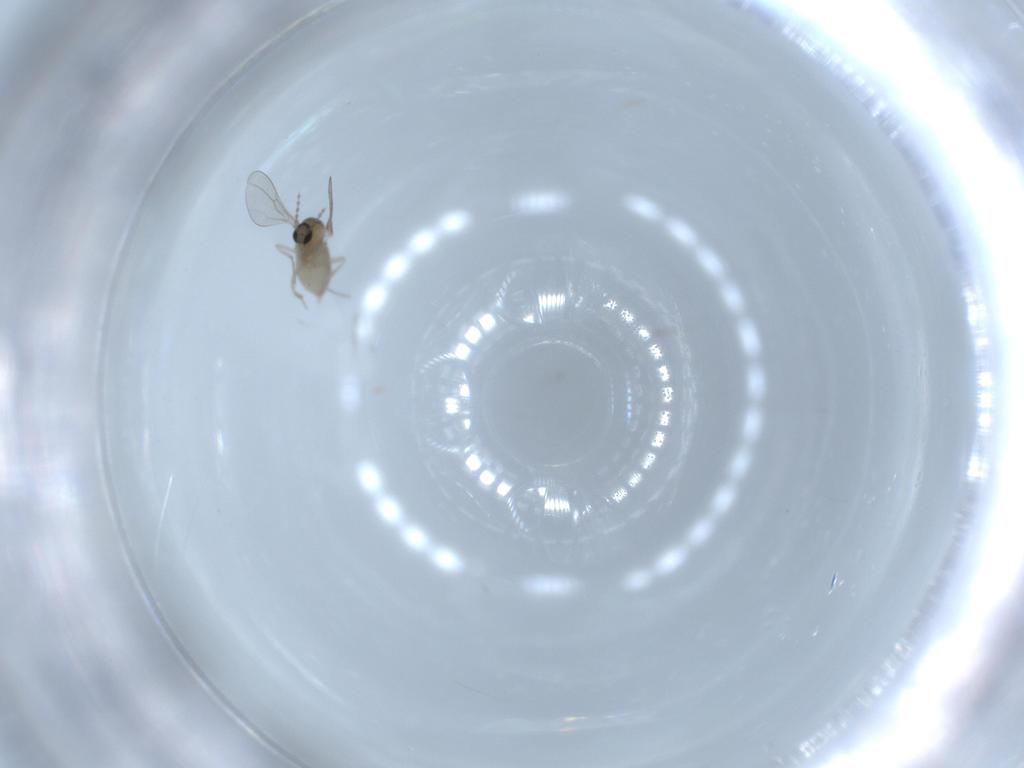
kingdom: Animalia
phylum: Arthropoda
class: Insecta
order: Diptera
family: Cecidomyiidae
